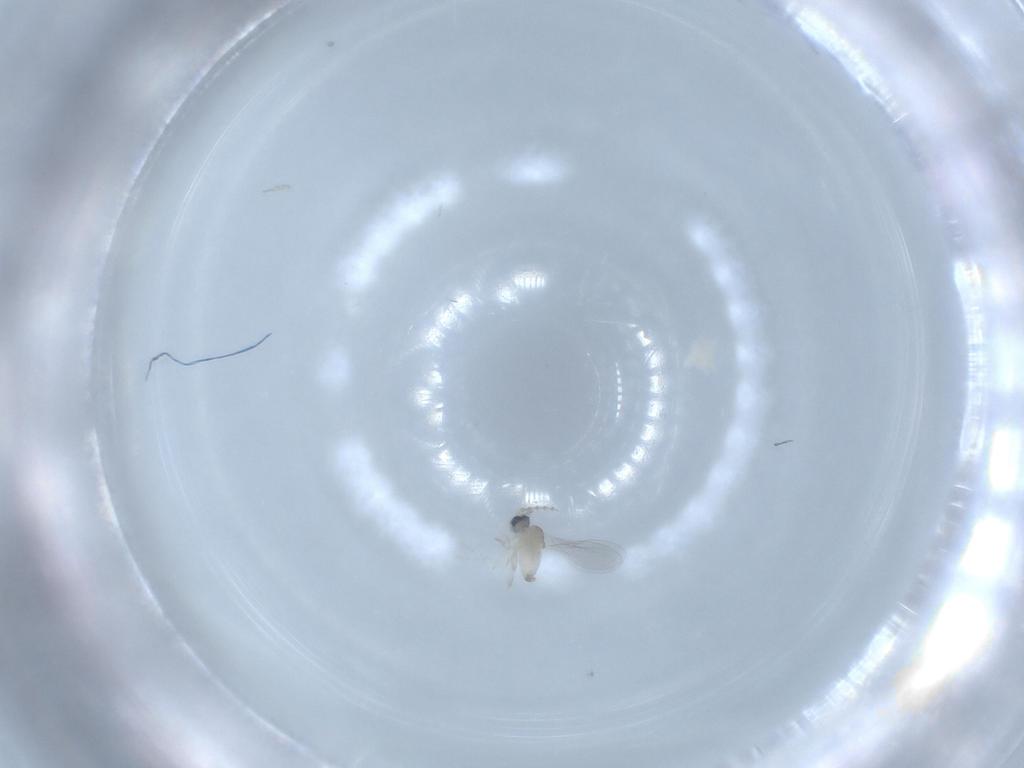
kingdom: Animalia
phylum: Arthropoda
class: Insecta
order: Diptera
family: Cecidomyiidae
